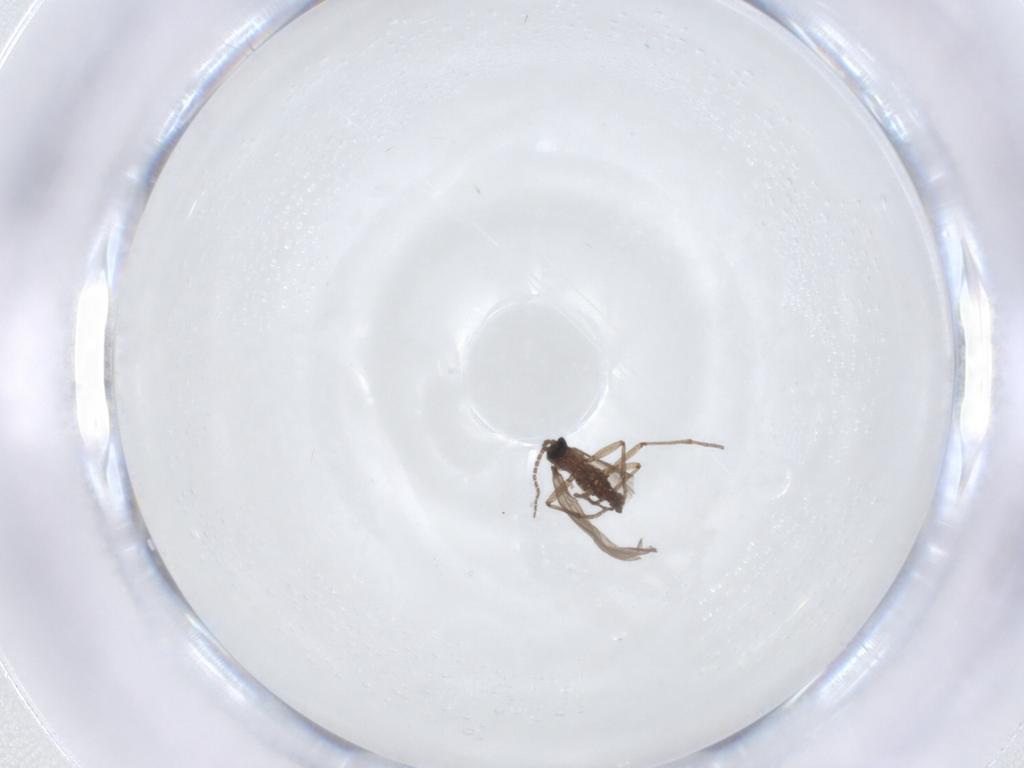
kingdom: Animalia
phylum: Arthropoda
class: Insecta
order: Diptera
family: Sciaridae
